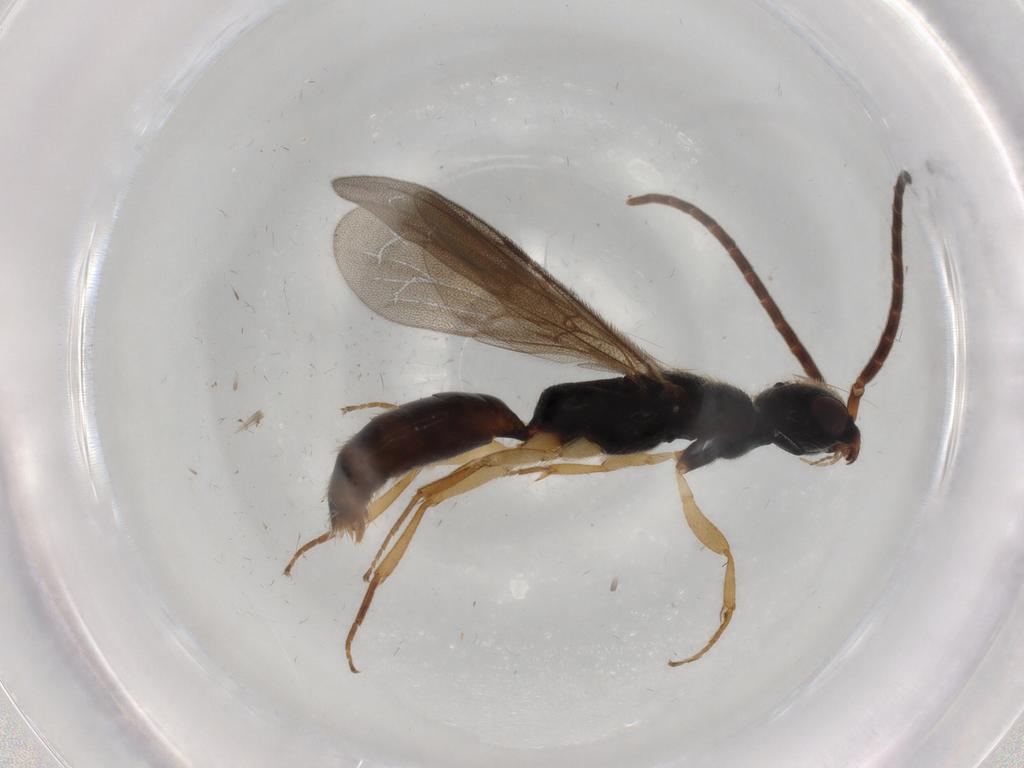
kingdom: Animalia
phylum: Arthropoda
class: Insecta
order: Hymenoptera
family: Bethylidae
